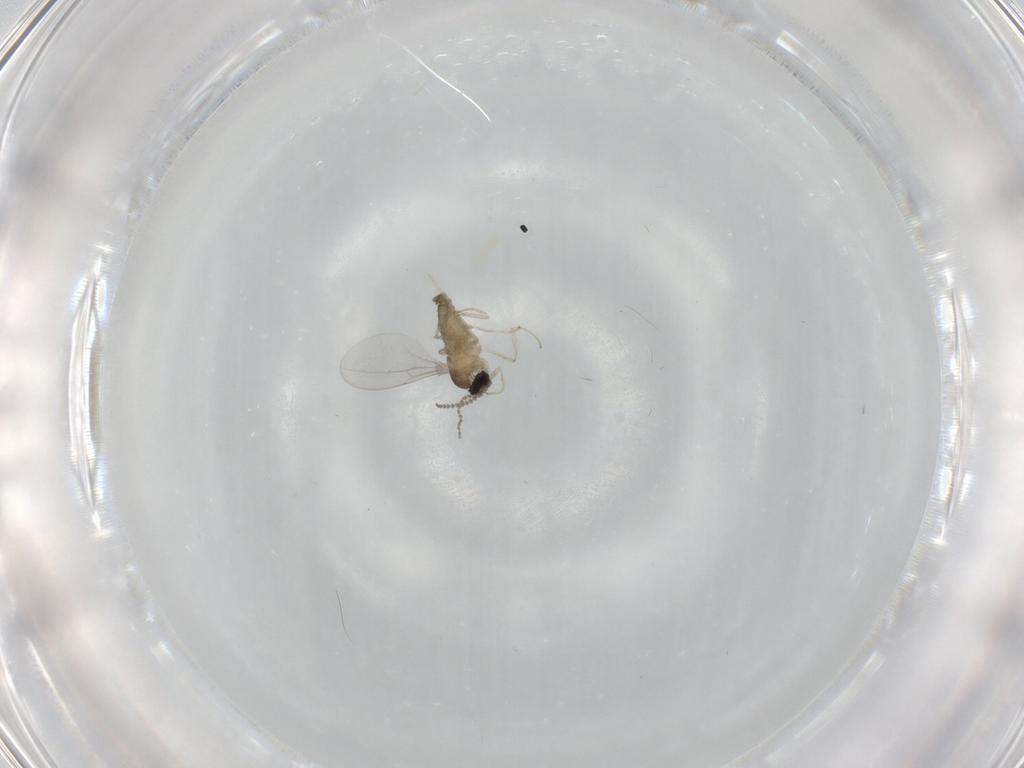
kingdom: Animalia
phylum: Arthropoda
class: Insecta
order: Diptera
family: Cecidomyiidae
